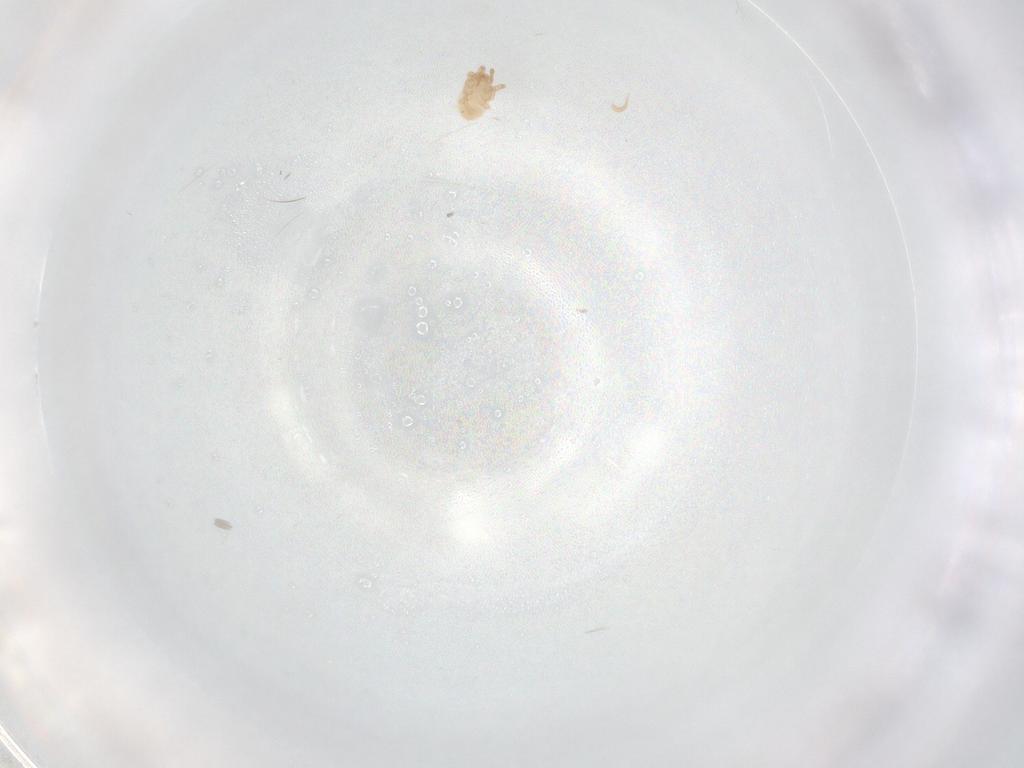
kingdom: Animalia
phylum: Arthropoda
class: Arachnida
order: Mesostigmata
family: Blattisociidae
